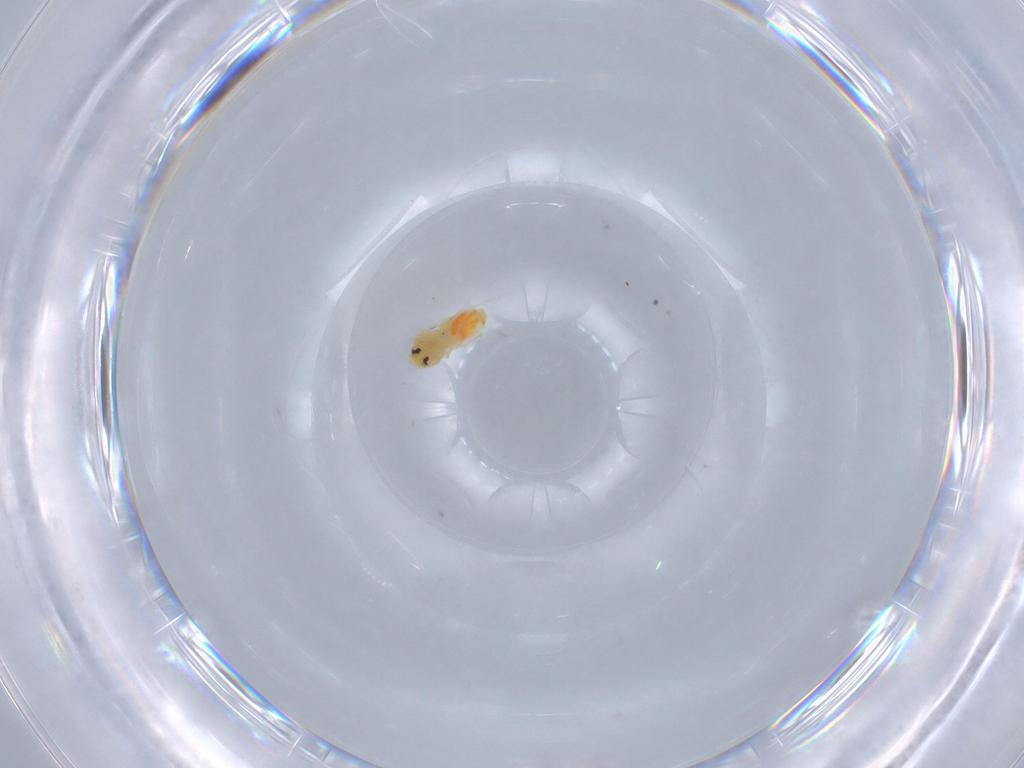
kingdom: Animalia
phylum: Arthropoda
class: Insecta
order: Hemiptera
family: Aleyrodidae
